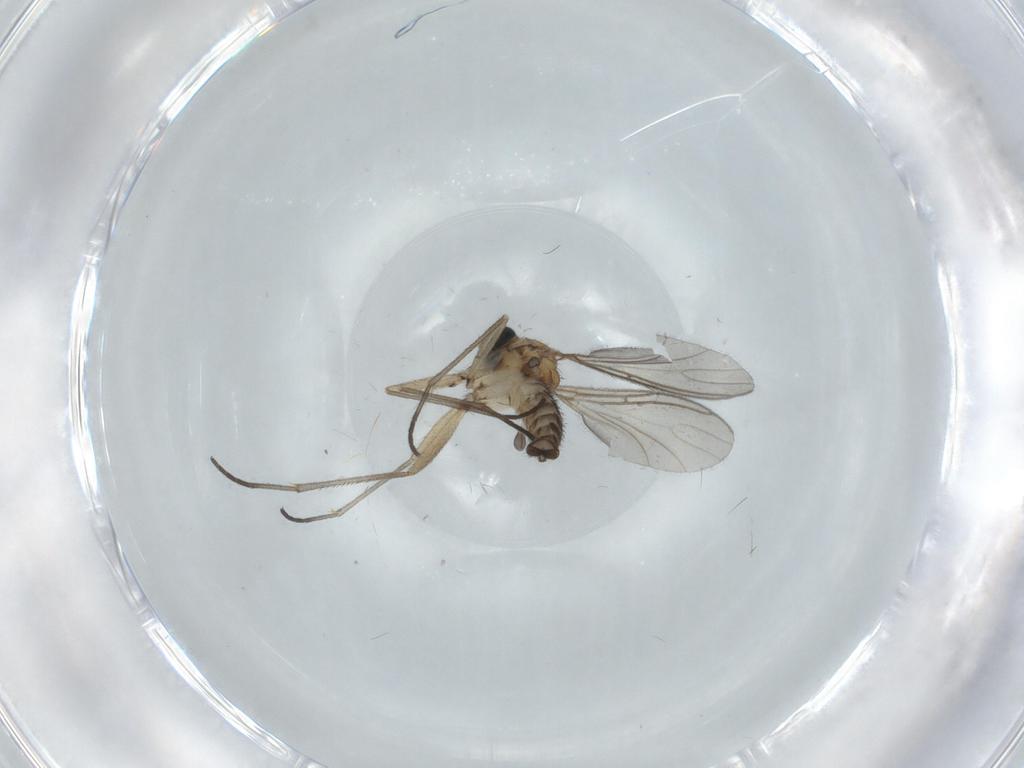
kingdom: Animalia
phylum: Arthropoda
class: Insecta
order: Diptera
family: Sciaridae
